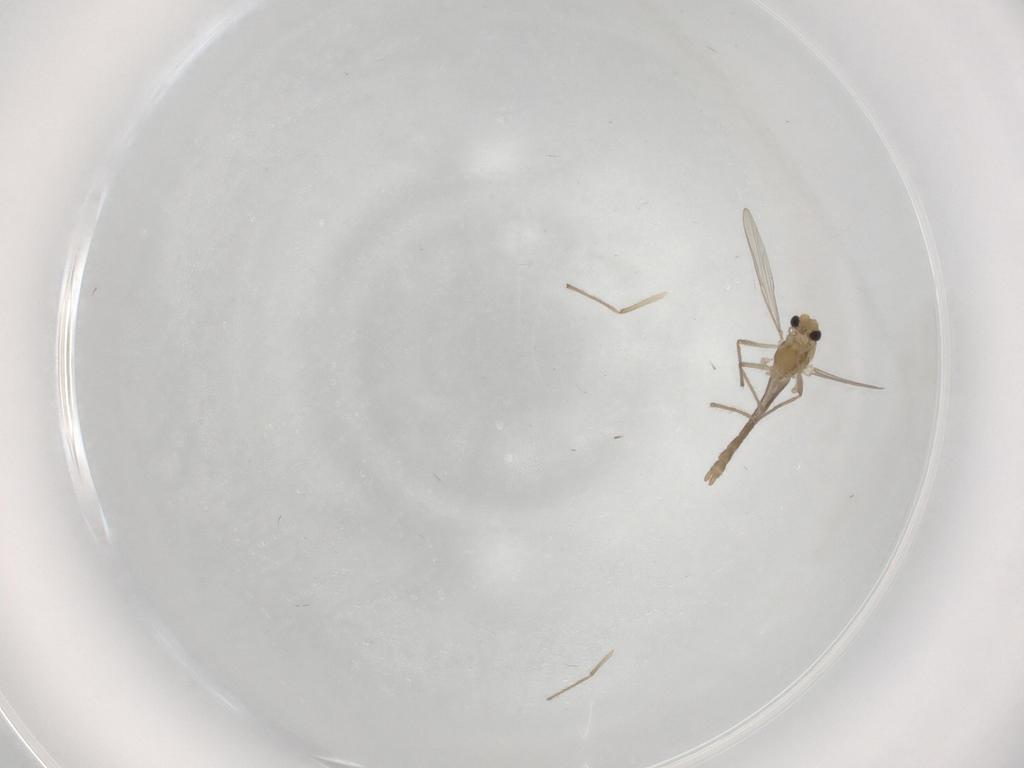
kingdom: Animalia
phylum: Arthropoda
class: Insecta
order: Diptera
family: Chironomidae
